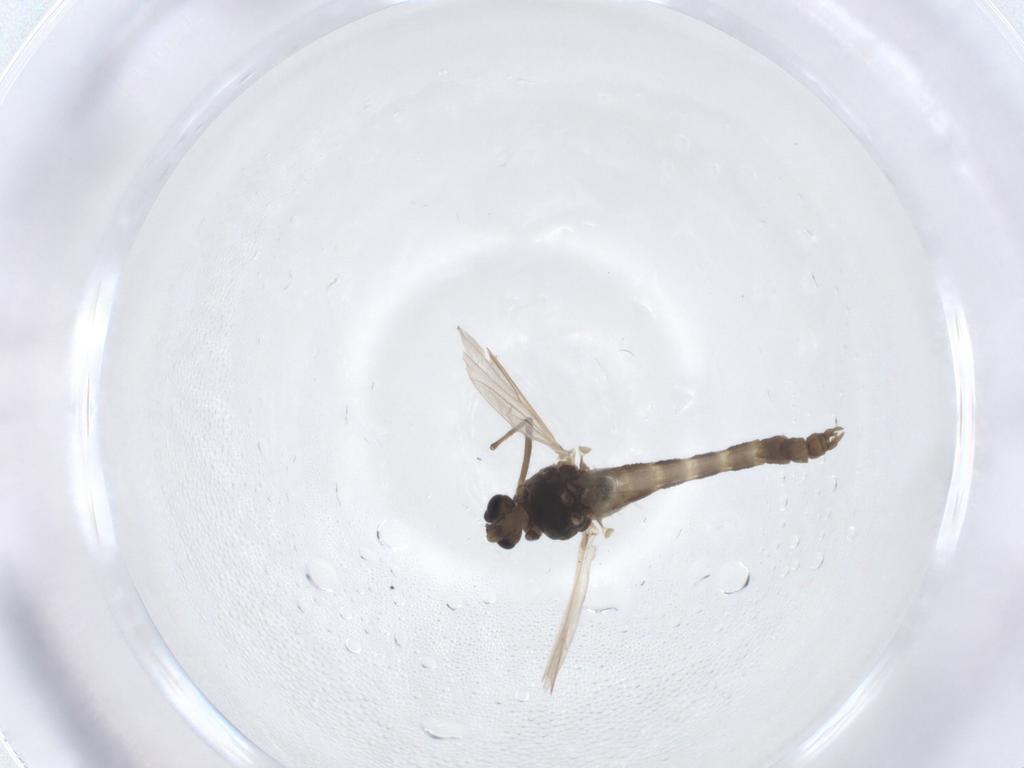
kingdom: Animalia
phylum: Arthropoda
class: Insecta
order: Diptera
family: Chironomidae
